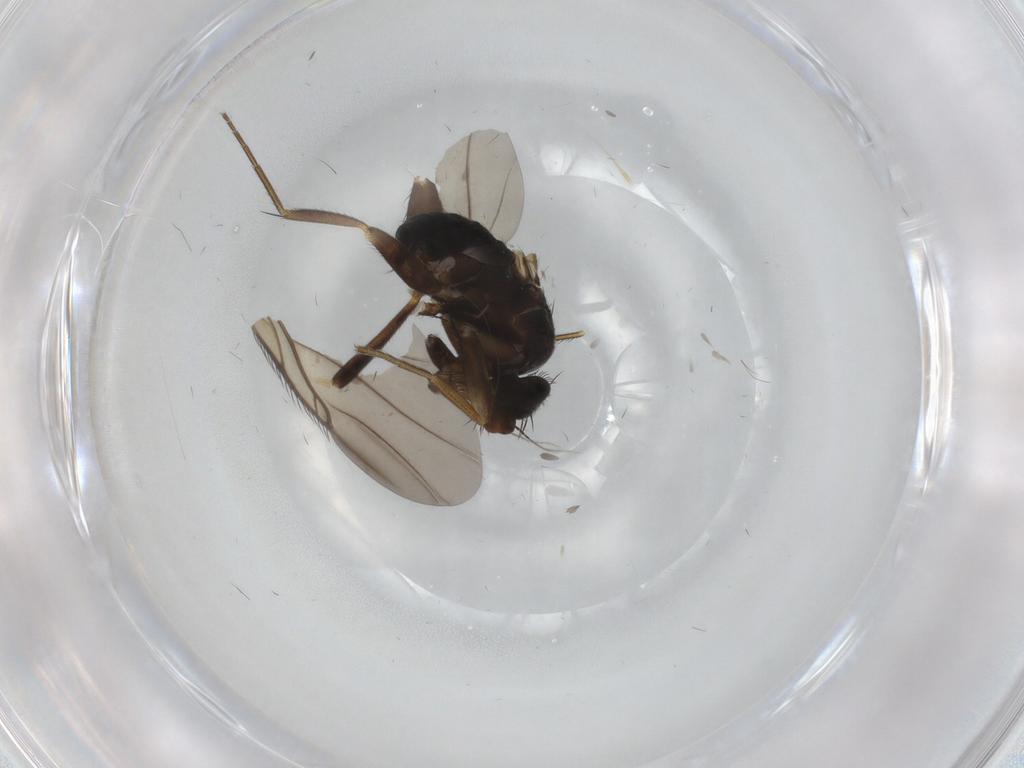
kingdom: Animalia
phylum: Arthropoda
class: Insecta
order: Diptera
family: Phoridae
